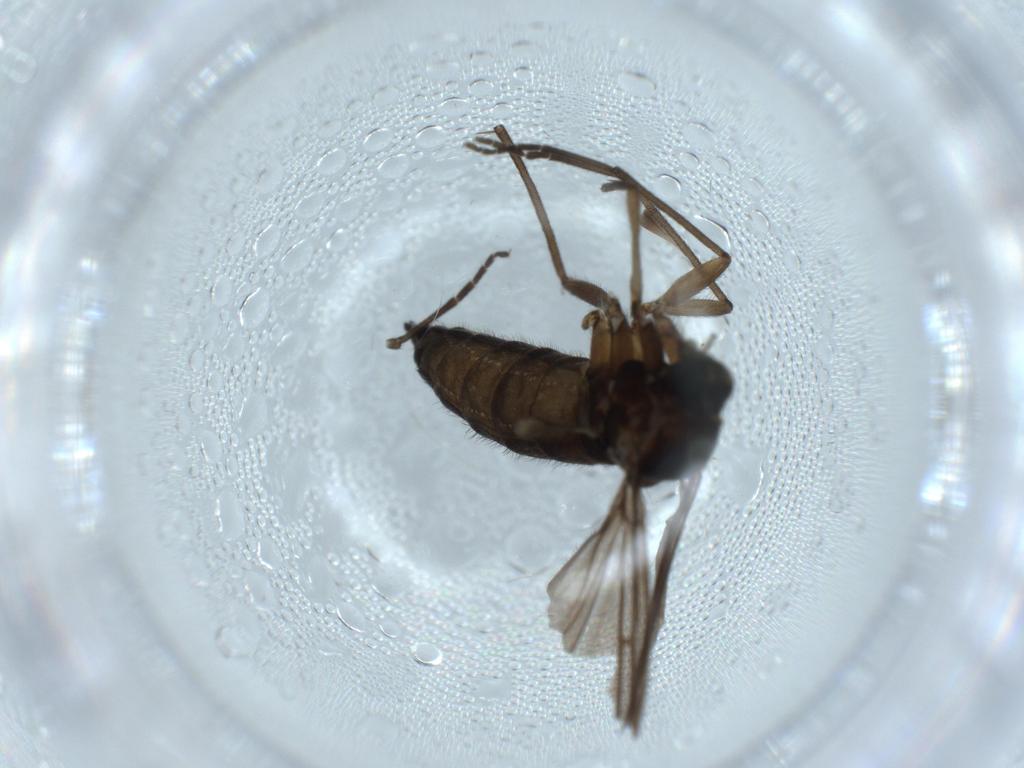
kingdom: Animalia
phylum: Arthropoda
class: Insecta
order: Diptera
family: Sciaridae
